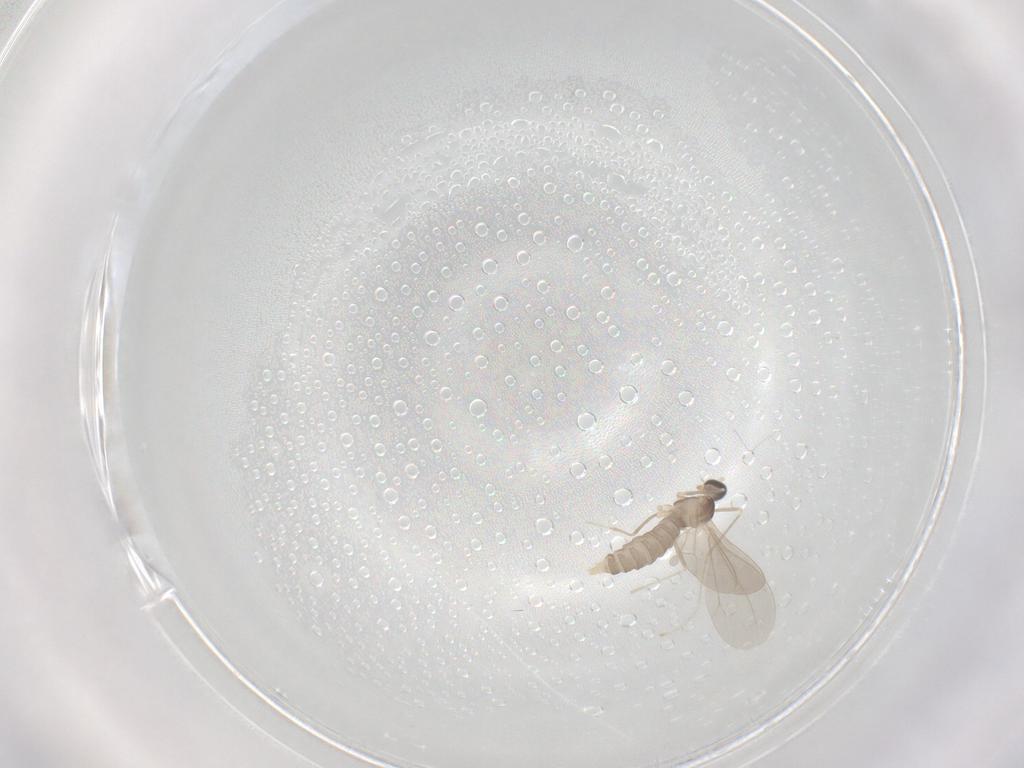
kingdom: Animalia
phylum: Arthropoda
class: Insecta
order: Diptera
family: Cecidomyiidae
